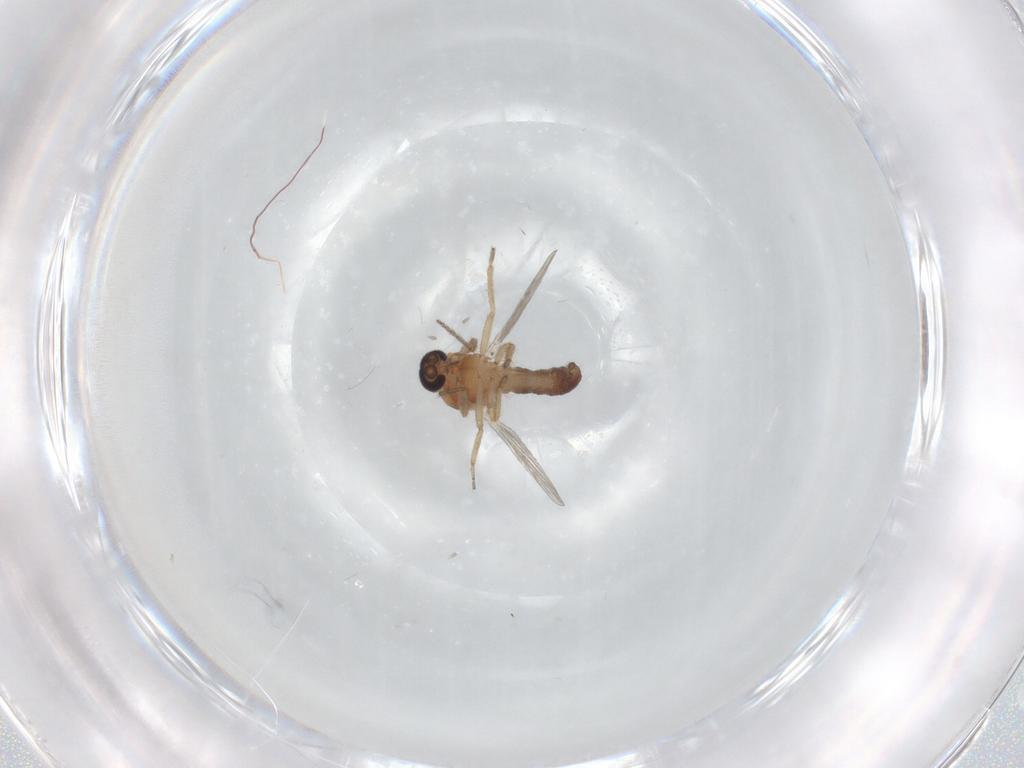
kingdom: Animalia
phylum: Arthropoda
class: Insecta
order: Diptera
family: Ceratopogonidae
